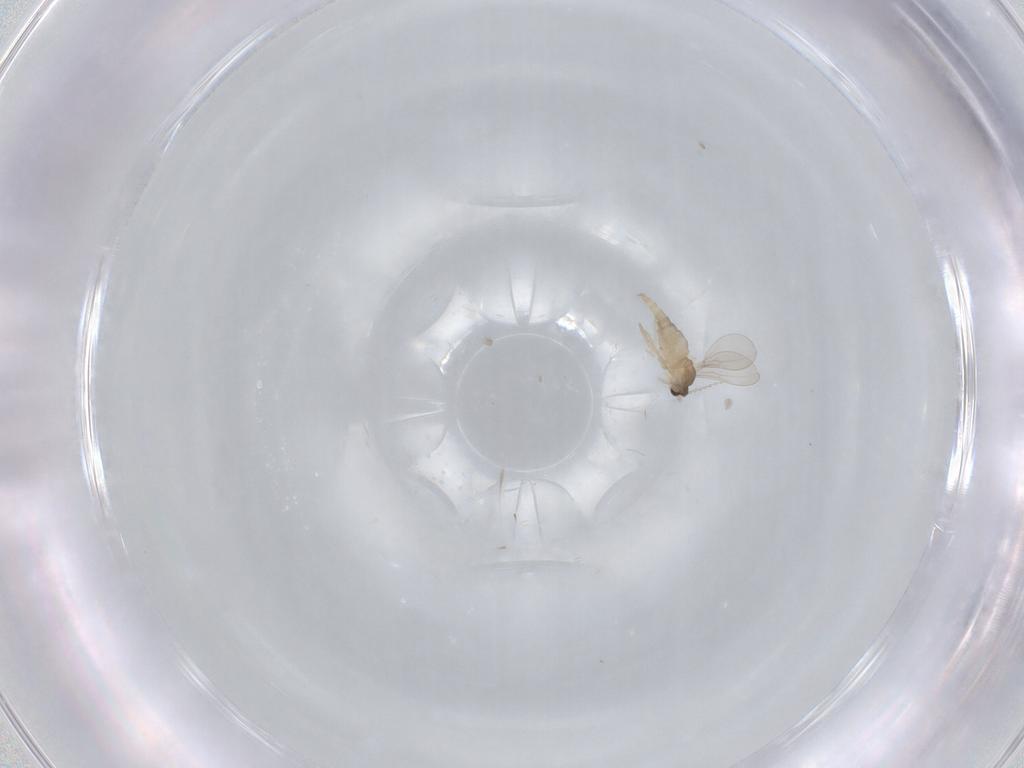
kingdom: Animalia
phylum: Arthropoda
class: Insecta
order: Diptera
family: Cecidomyiidae
